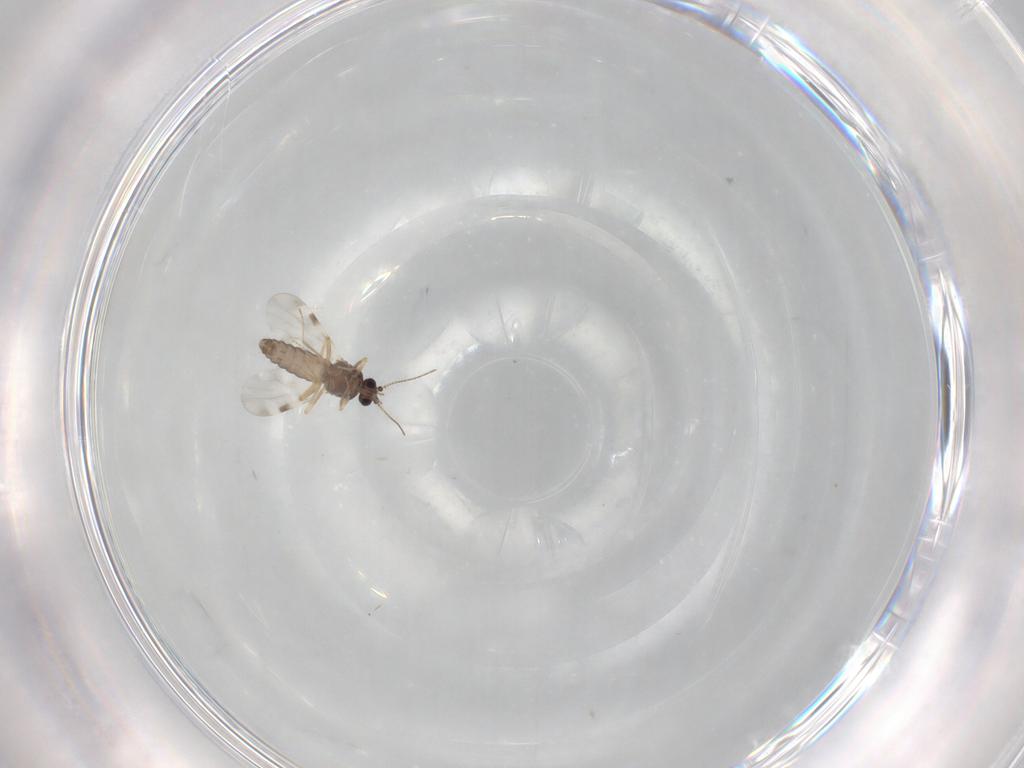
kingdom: Animalia
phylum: Arthropoda
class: Insecta
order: Diptera
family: Ceratopogonidae
